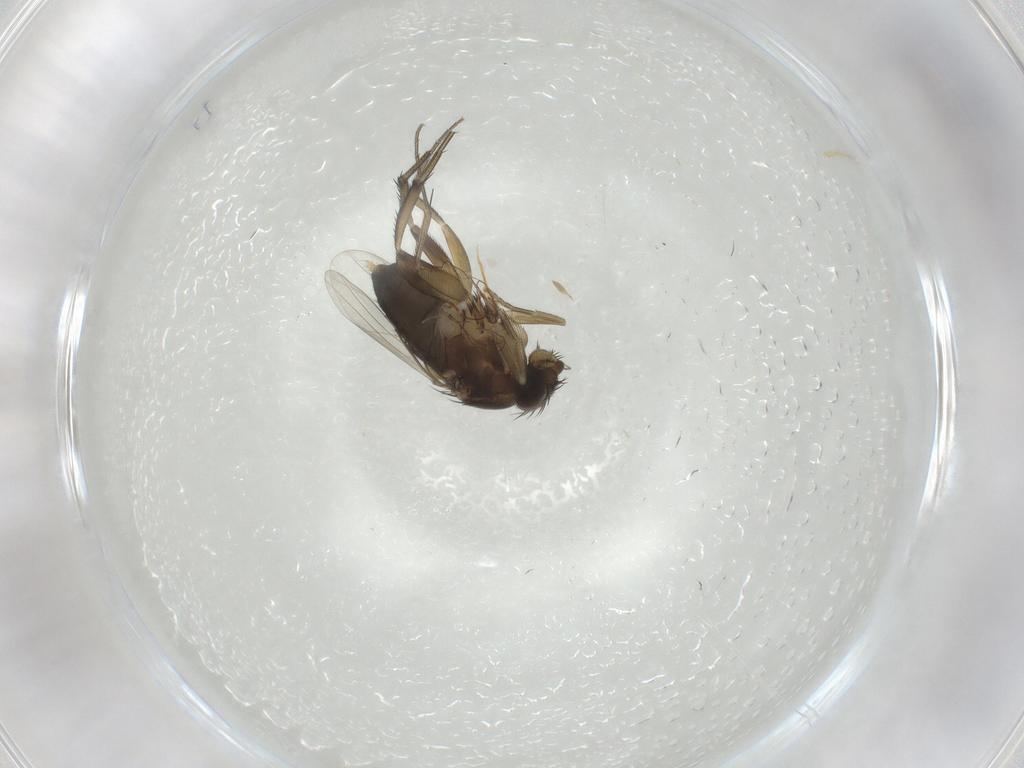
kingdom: Animalia
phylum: Arthropoda
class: Insecta
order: Diptera
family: Phoridae
